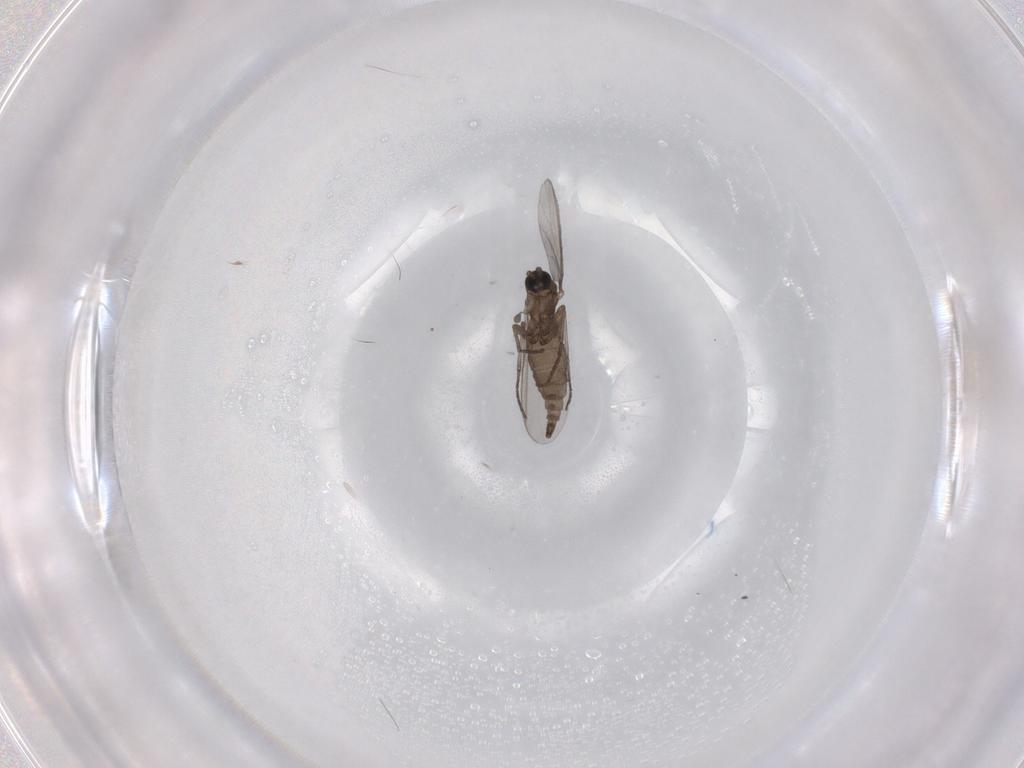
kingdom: Animalia
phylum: Arthropoda
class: Insecta
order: Diptera
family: Sciaridae
